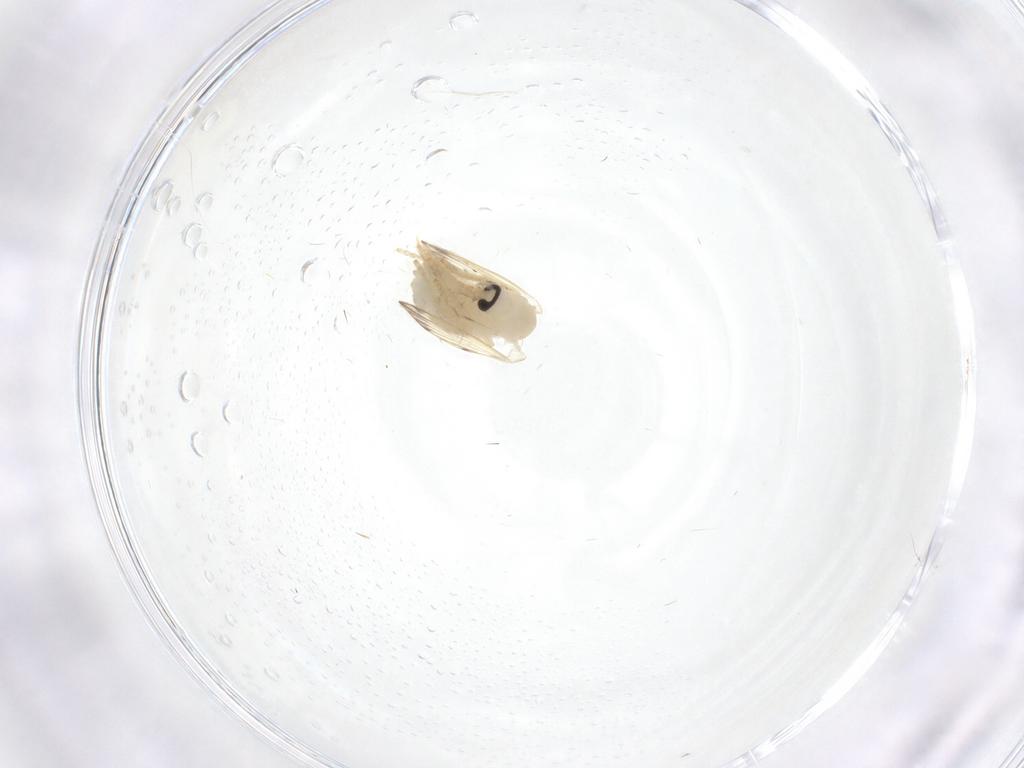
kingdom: Animalia
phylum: Arthropoda
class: Insecta
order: Diptera
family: Psychodidae
